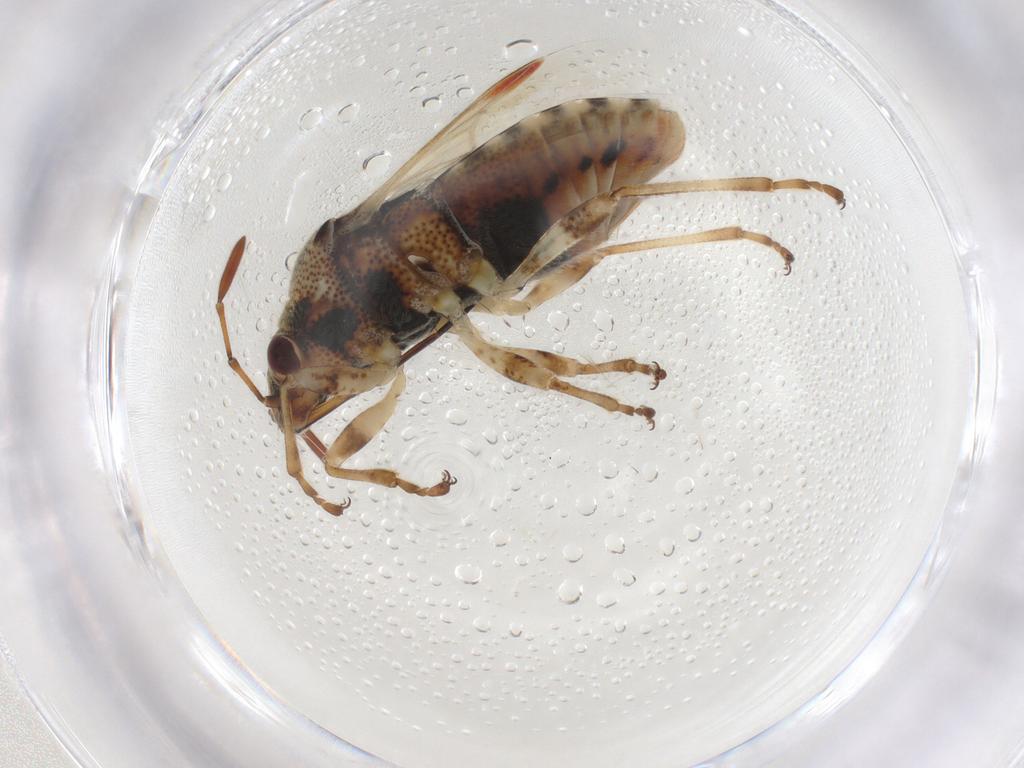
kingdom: Animalia
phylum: Arthropoda
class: Insecta
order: Hemiptera
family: Lygaeidae
